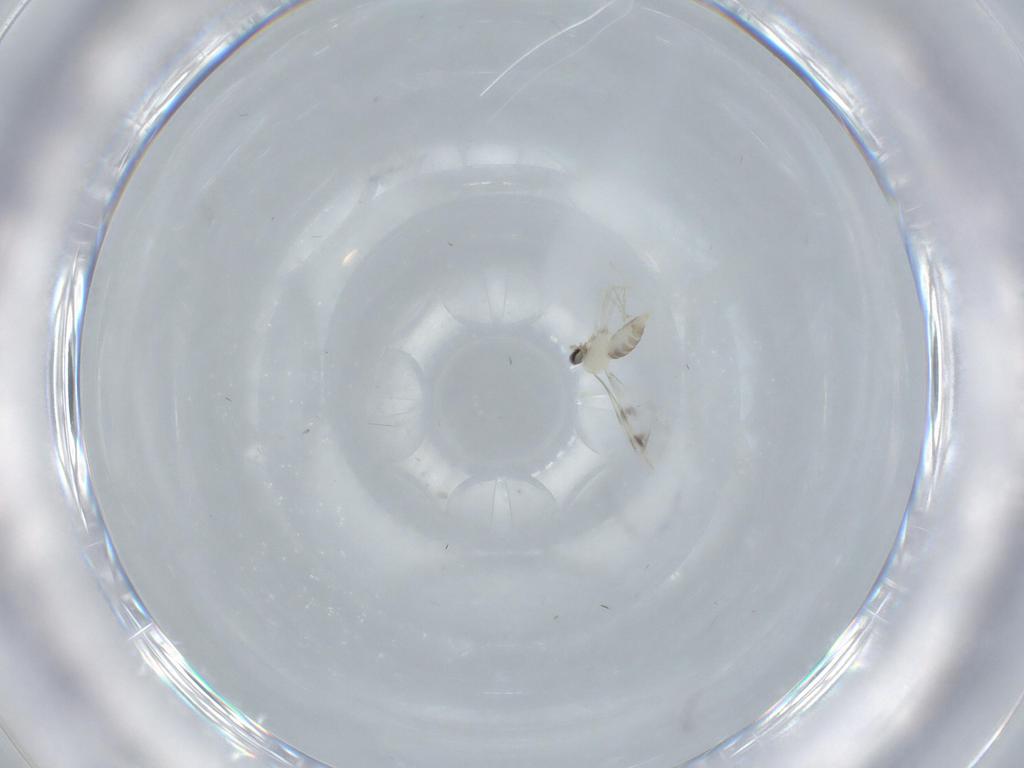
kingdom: Animalia
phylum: Arthropoda
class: Insecta
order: Diptera
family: Cecidomyiidae
